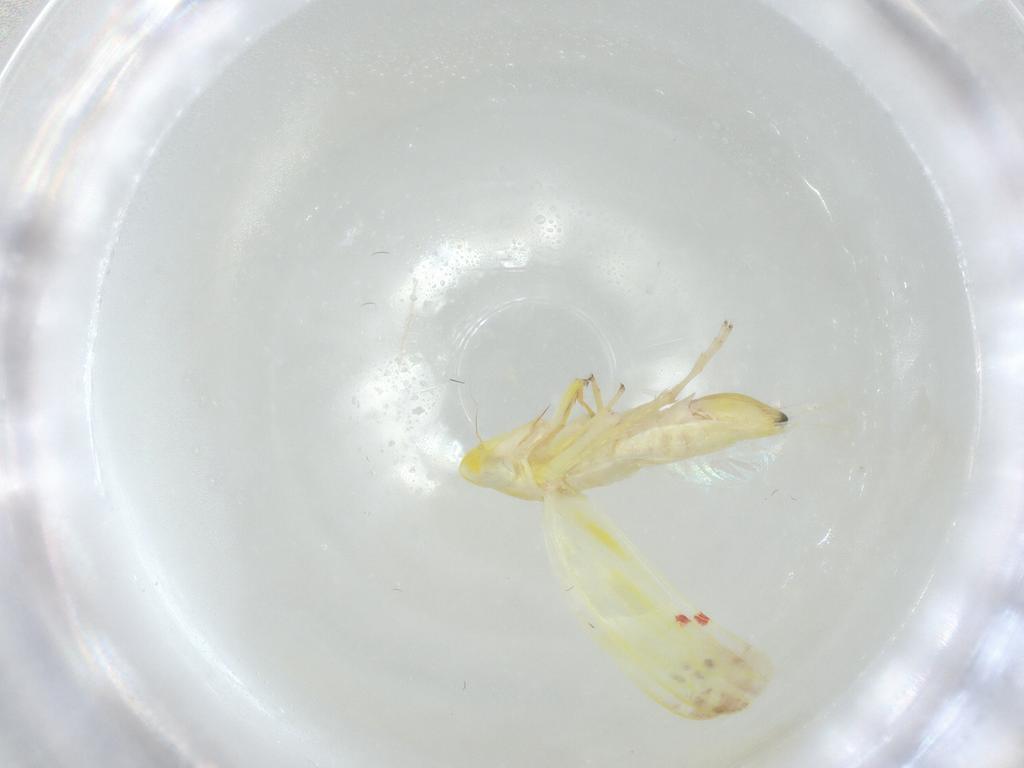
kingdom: Animalia
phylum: Arthropoda
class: Insecta
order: Hemiptera
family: Cicadellidae
